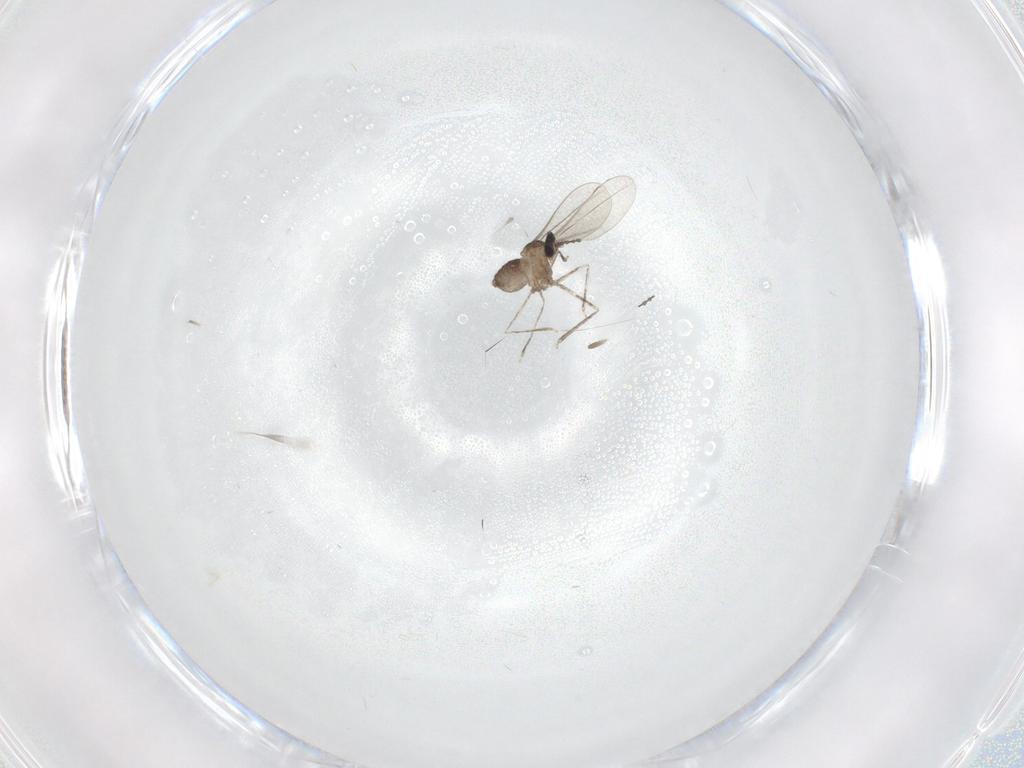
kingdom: Animalia
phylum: Arthropoda
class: Insecta
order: Diptera
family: Cecidomyiidae
